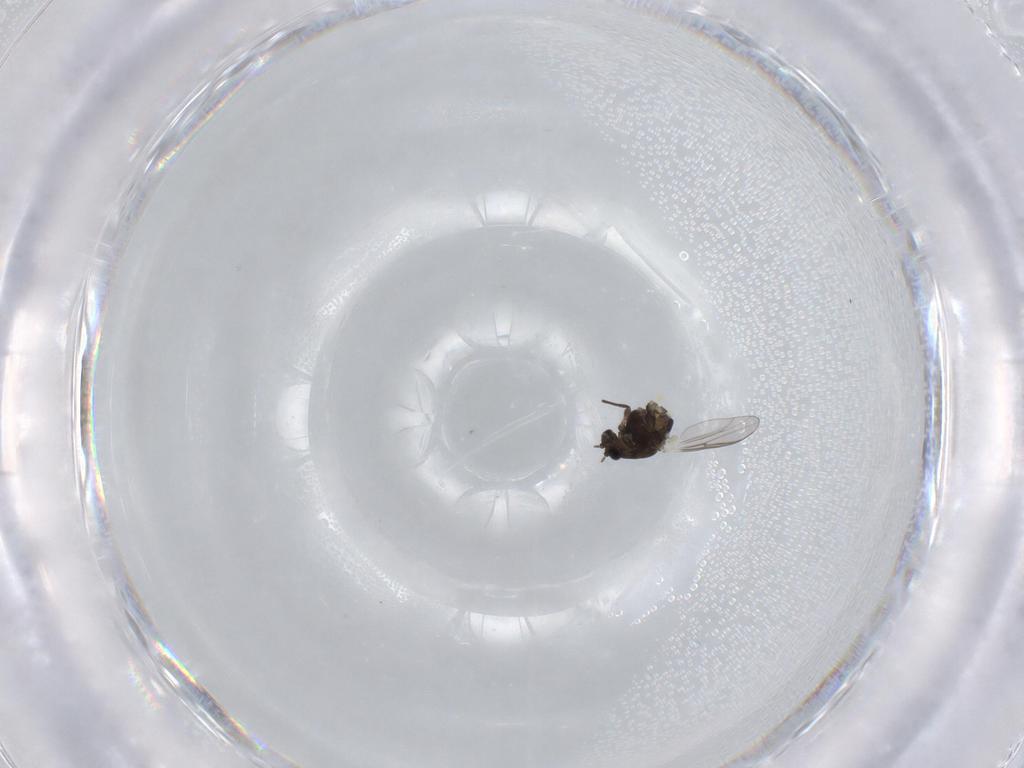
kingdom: Animalia
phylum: Arthropoda
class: Insecta
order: Diptera
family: Chironomidae
